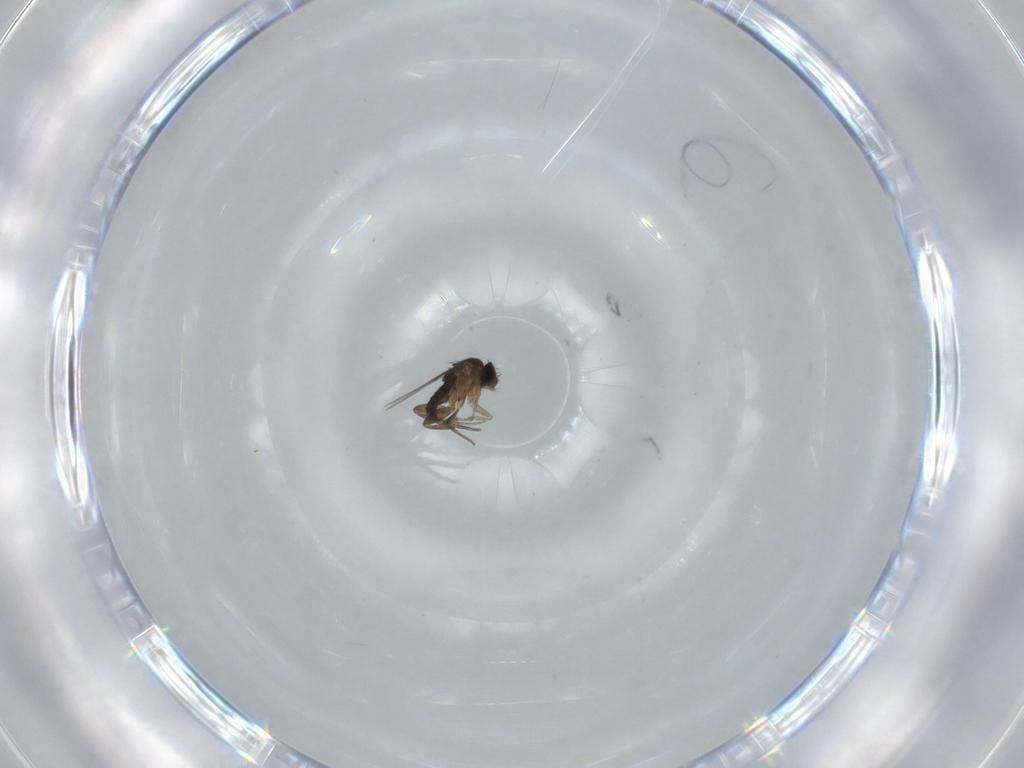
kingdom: Animalia
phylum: Arthropoda
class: Insecta
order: Diptera
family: Phoridae
